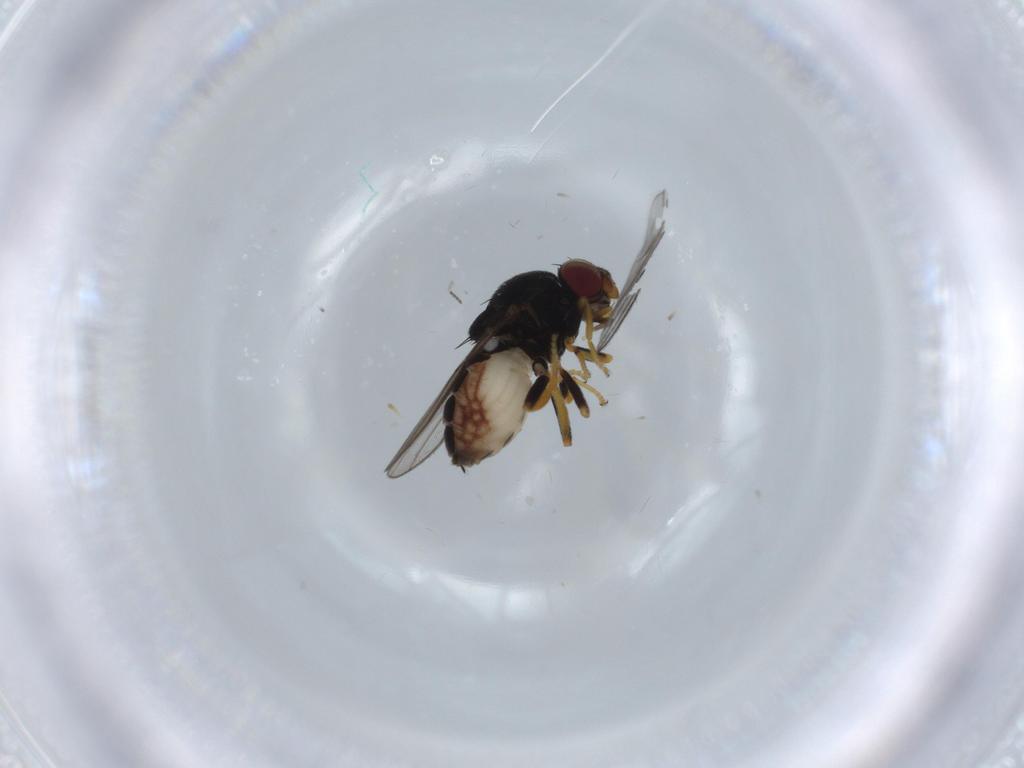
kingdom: Animalia
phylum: Arthropoda
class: Insecta
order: Diptera
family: Chloropidae
